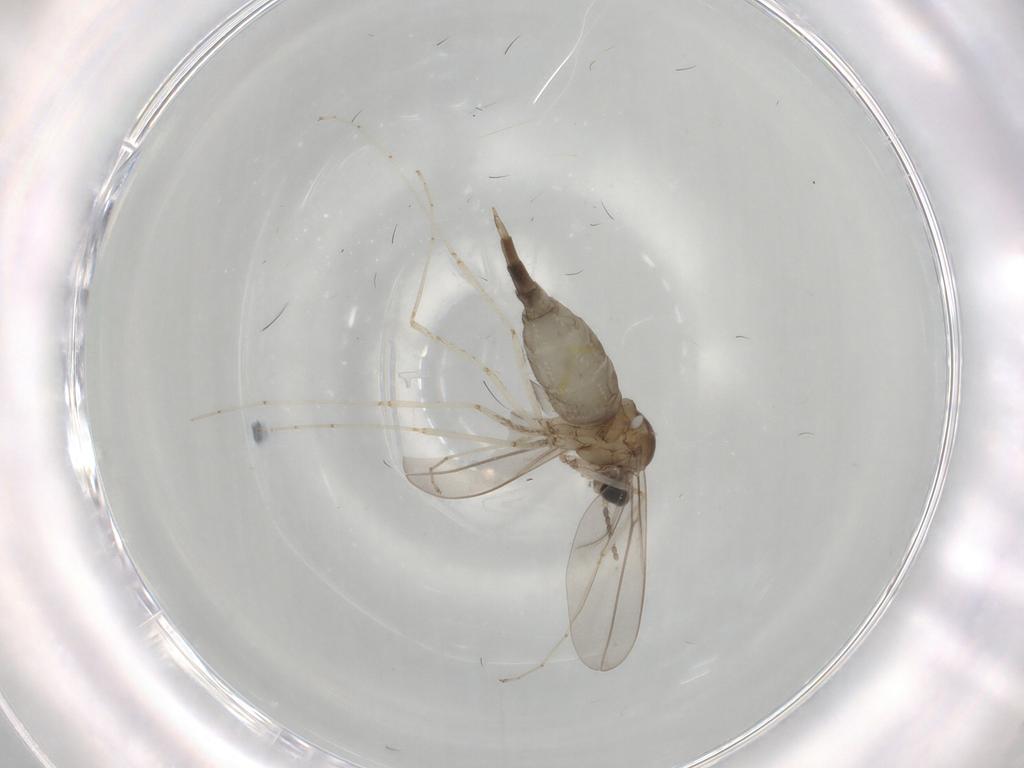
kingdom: Animalia
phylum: Arthropoda
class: Insecta
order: Diptera
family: Cecidomyiidae
